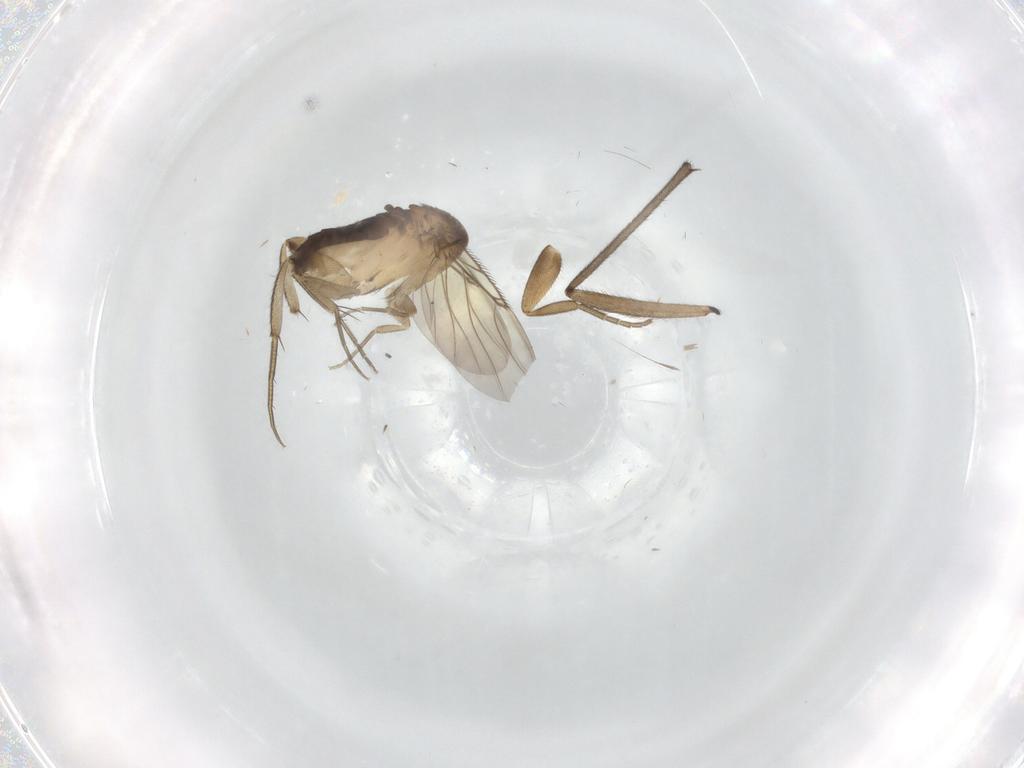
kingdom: Animalia
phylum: Arthropoda
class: Insecta
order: Diptera
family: Phoridae
